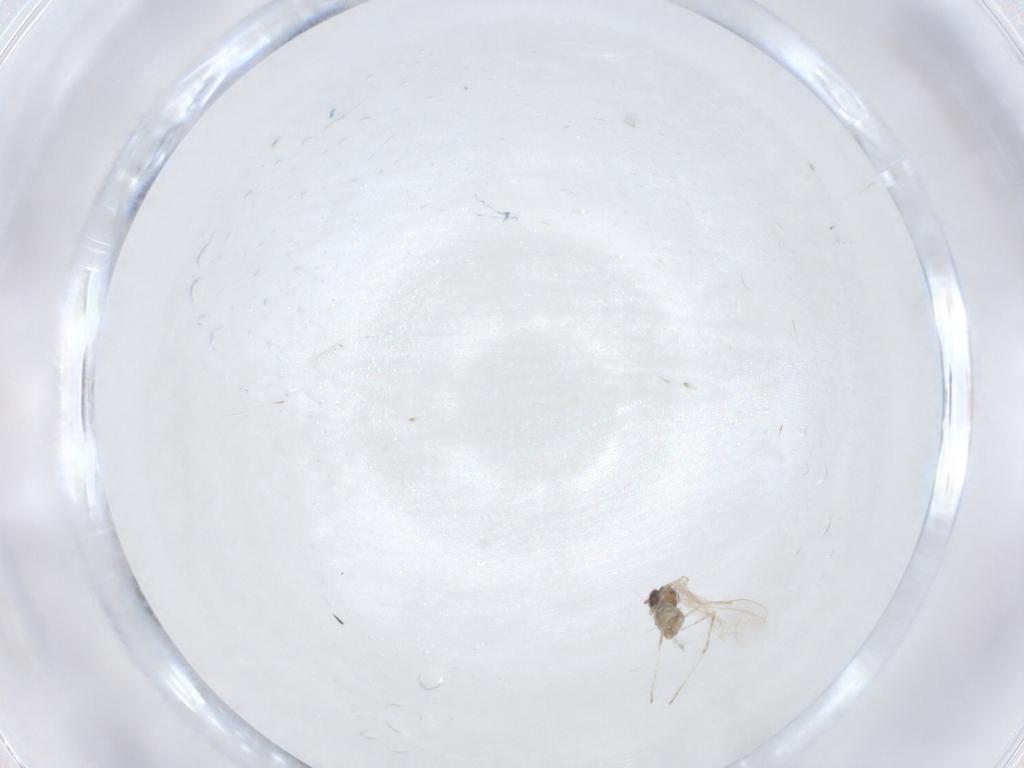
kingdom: Animalia
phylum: Arthropoda
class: Insecta
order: Diptera
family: Cecidomyiidae
